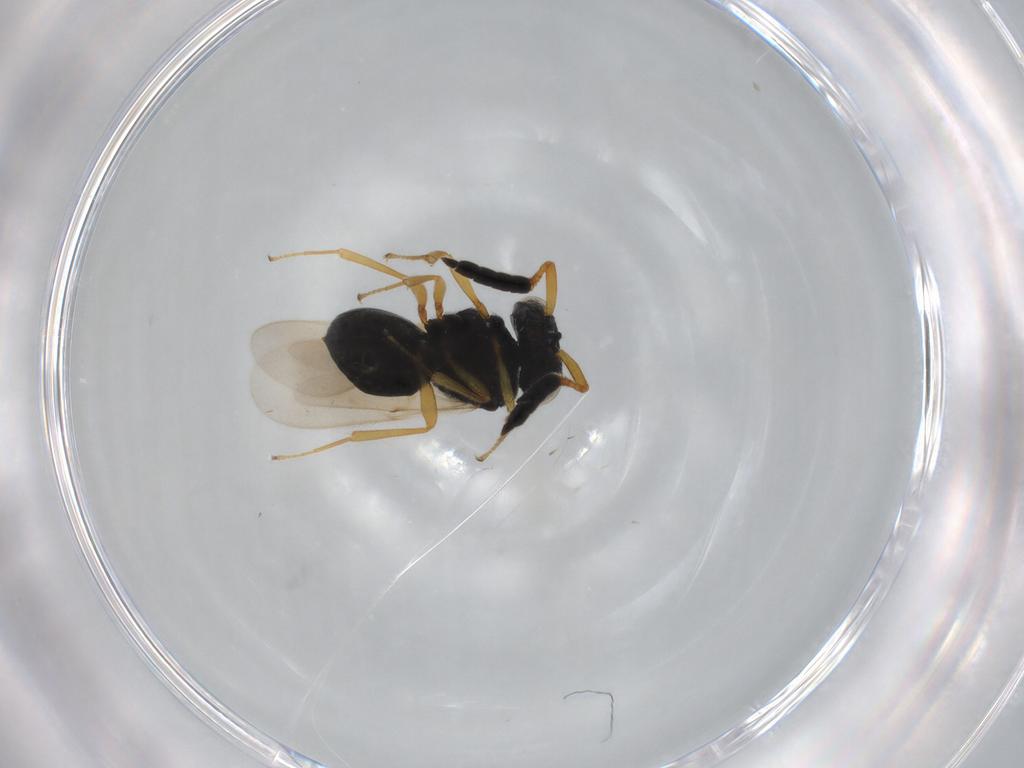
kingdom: Animalia
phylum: Arthropoda
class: Insecta
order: Hymenoptera
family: Scelionidae
